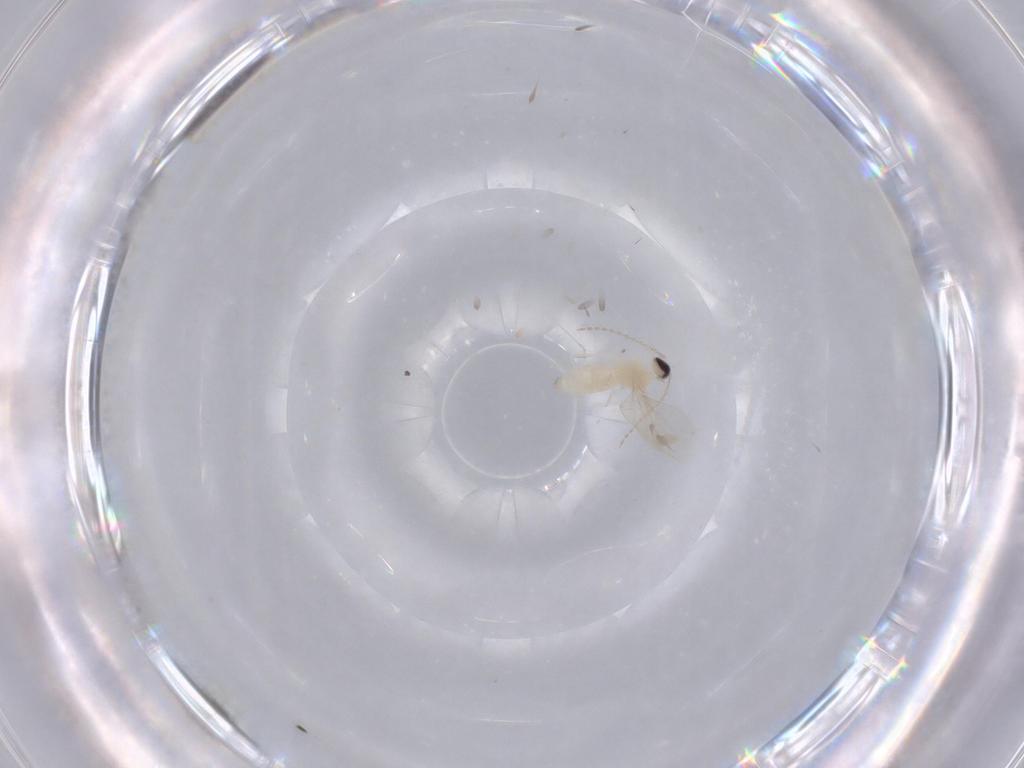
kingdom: Animalia
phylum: Arthropoda
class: Insecta
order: Diptera
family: Cecidomyiidae
